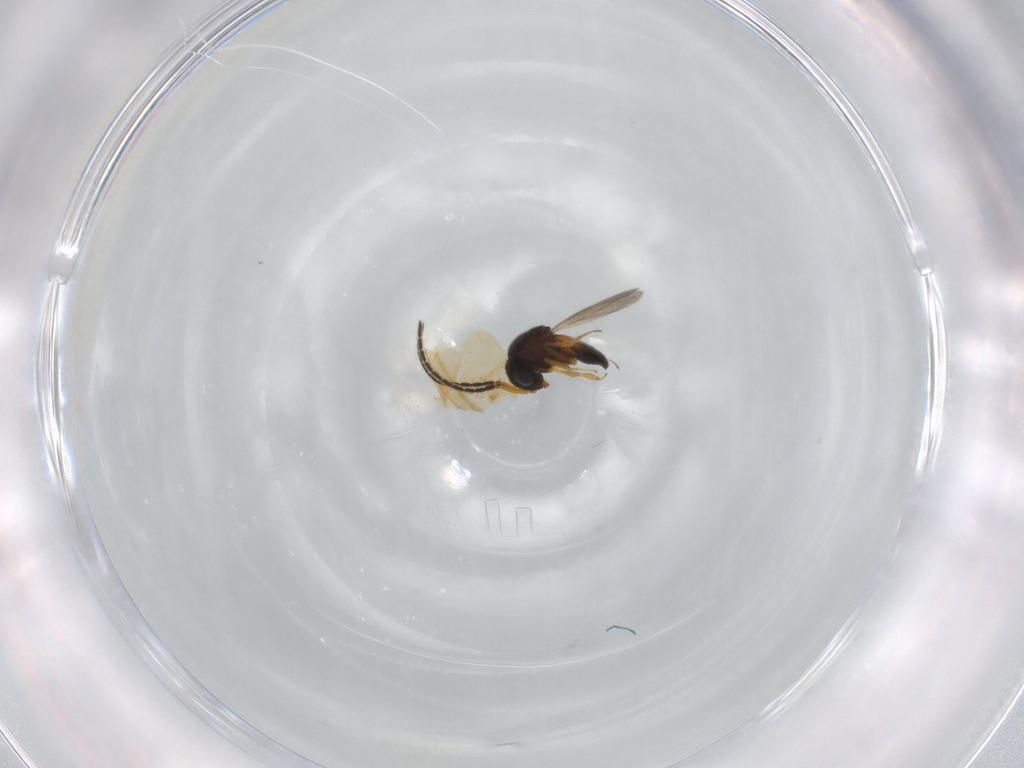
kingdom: Animalia
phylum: Arthropoda
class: Insecta
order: Hymenoptera
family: Scelionidae
